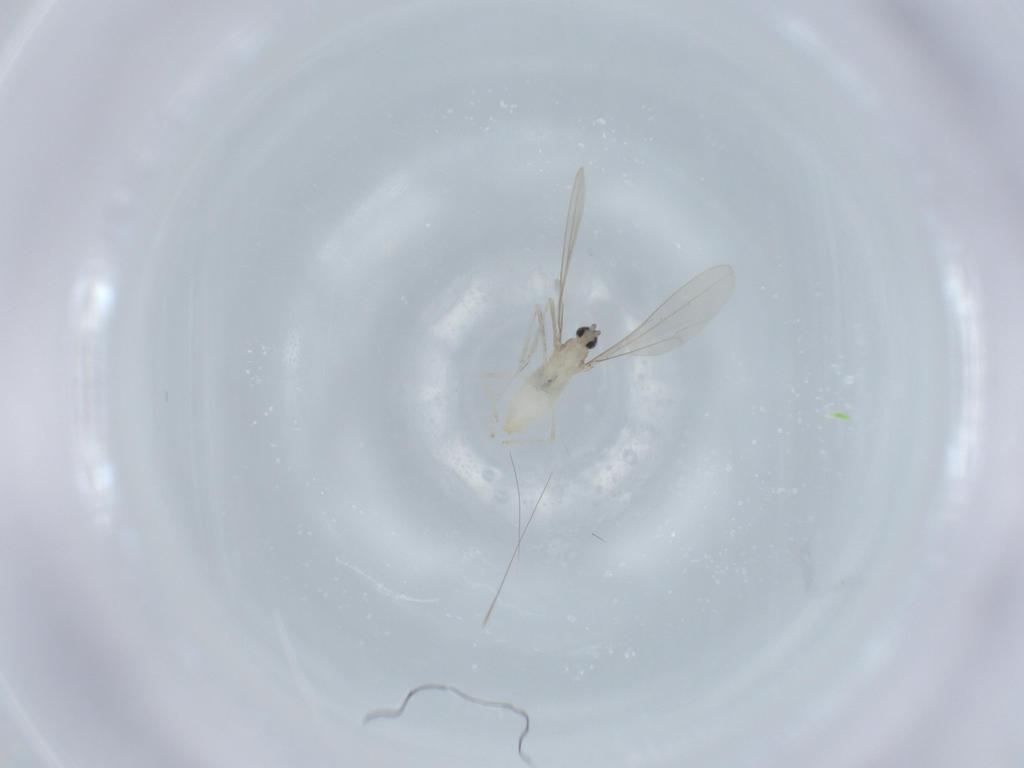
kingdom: Animalia
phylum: Arthropoda
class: Insecta
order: Diptera
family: Cecidomyiidae
